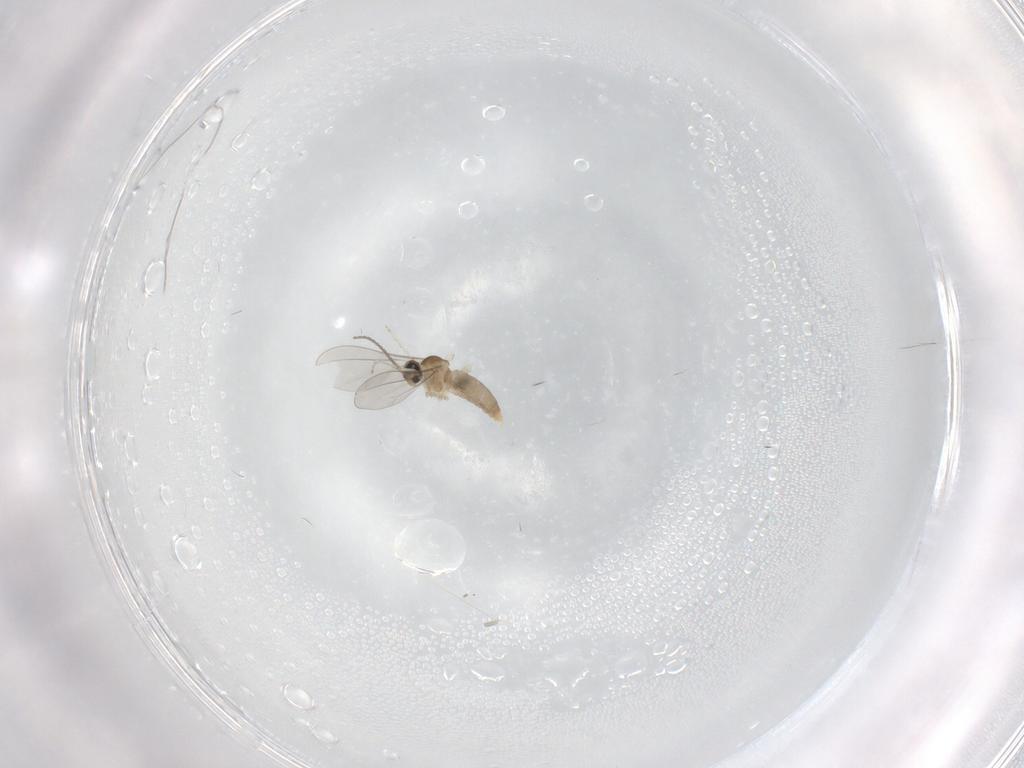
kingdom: Animalia
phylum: Arthropoda
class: Insecta
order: Diptera
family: Cecidomyiidae
